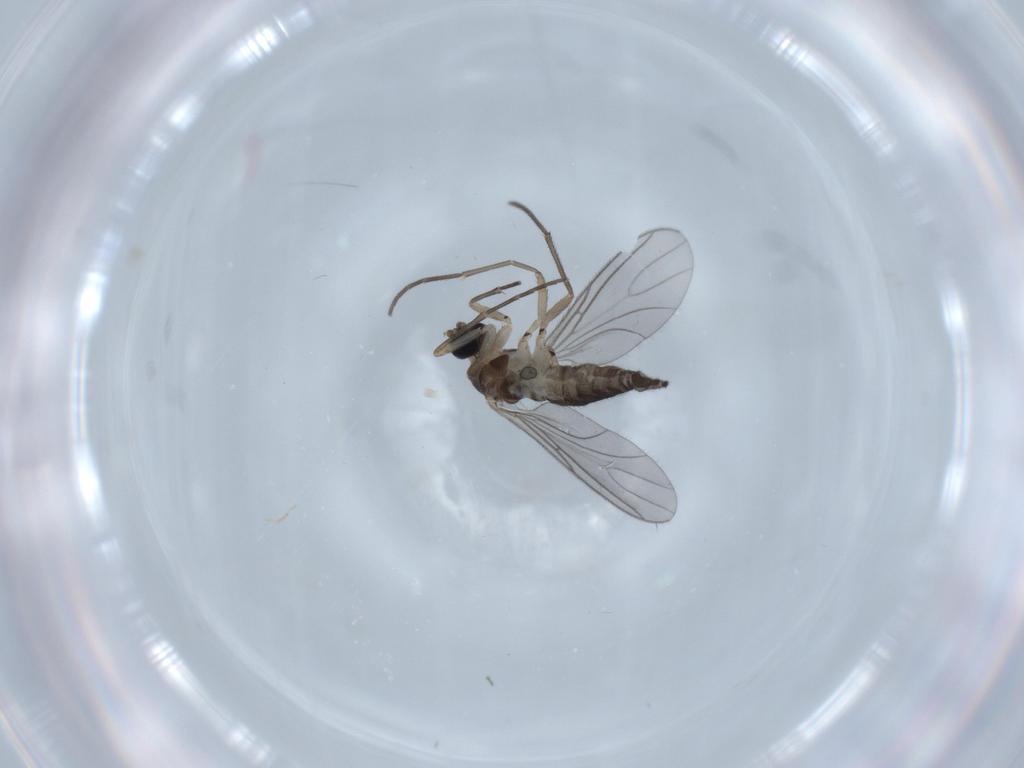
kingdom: Animalia
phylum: Arthropoda
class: Insecta
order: Diptera
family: Sciaridae
